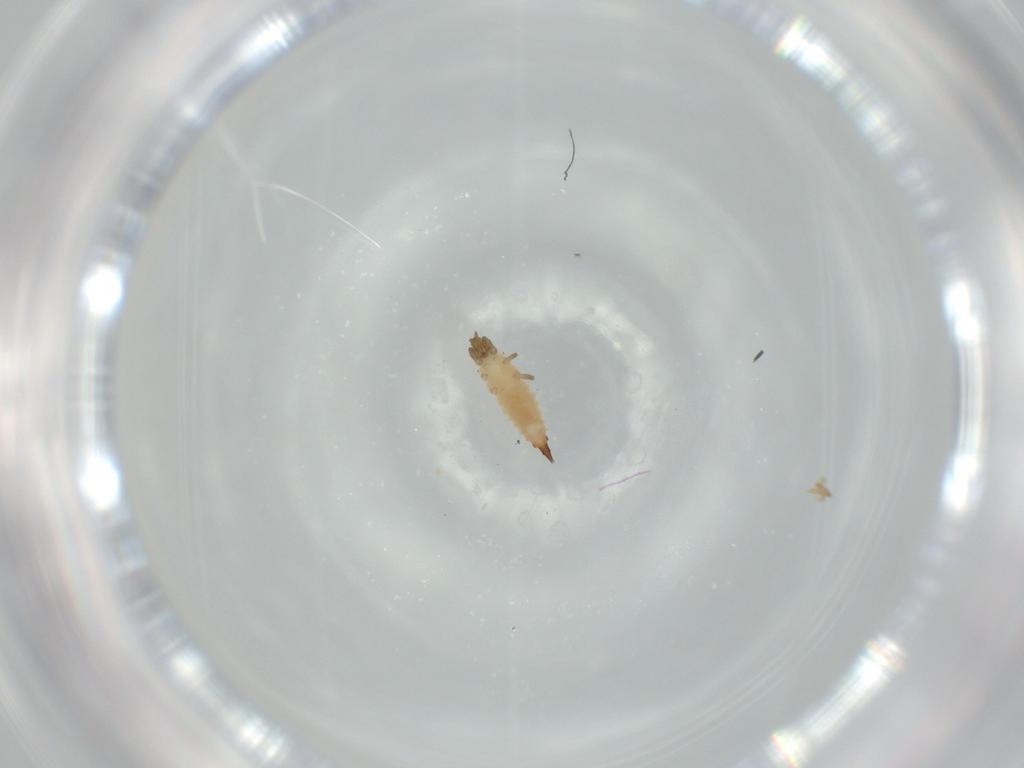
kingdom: Animalia
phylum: Arthropoda
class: Insecta
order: Thysanoptera
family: Phlaeothripidae
